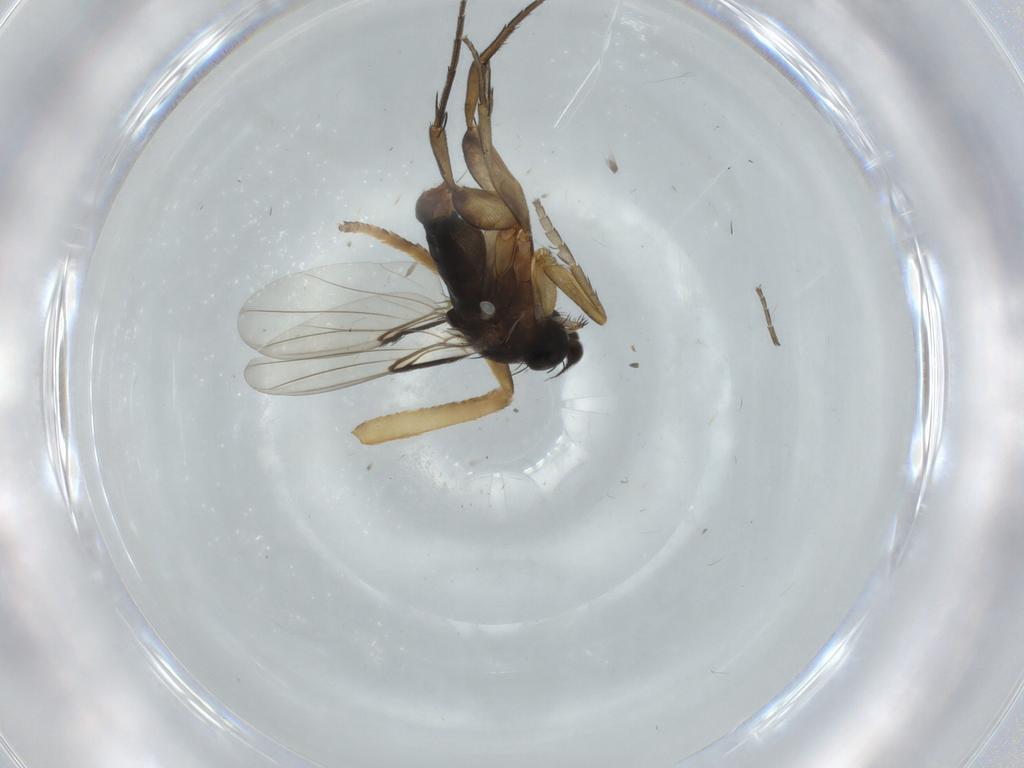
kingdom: Animalia
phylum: Arthropoda
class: Insecta
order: Diptera
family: Phoridae
